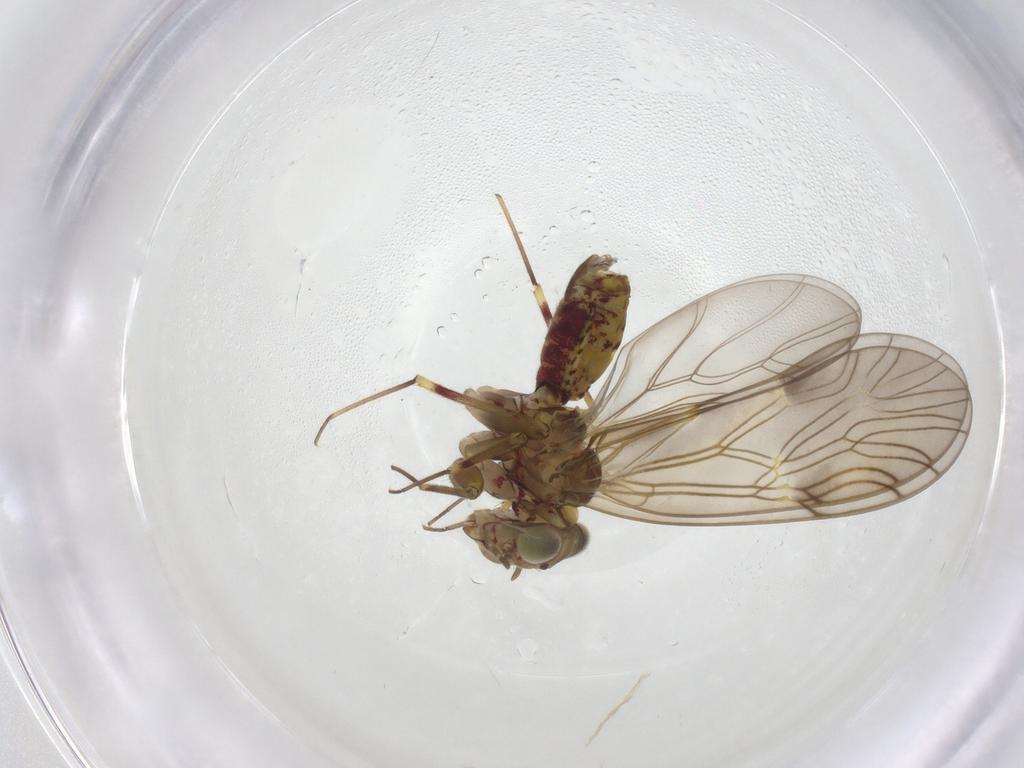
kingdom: Animalia
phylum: Arthropoda
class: Insecta
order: Psocodea
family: Philotarsidae
